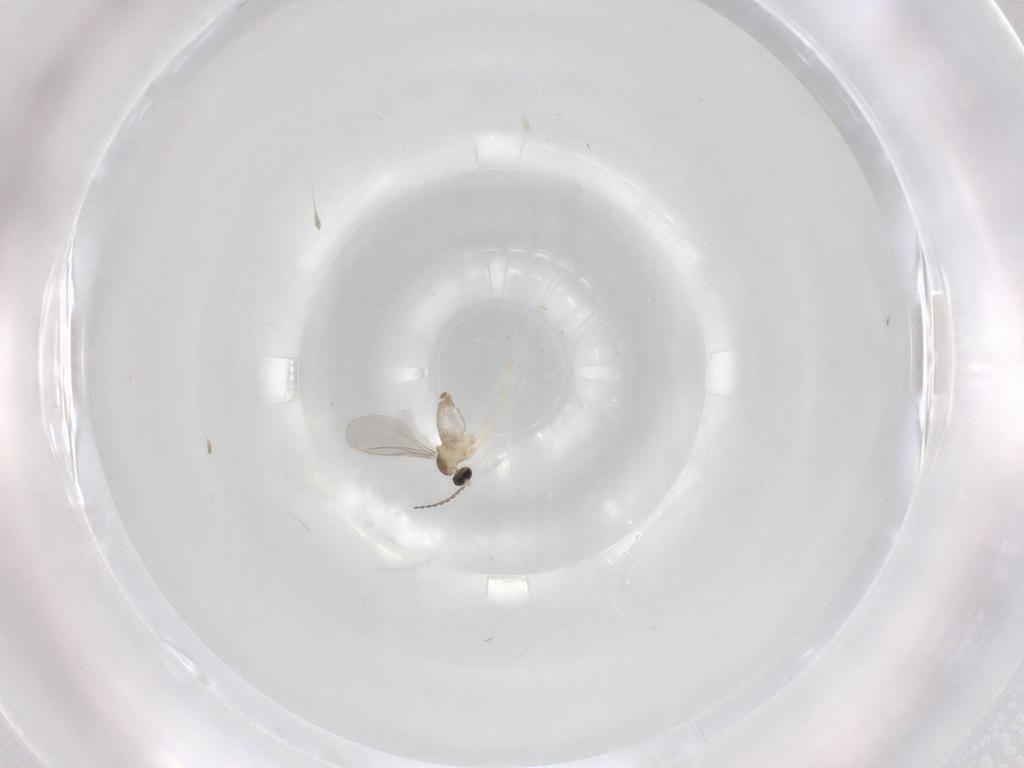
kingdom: Animalia
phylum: Arthropoda
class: Insecta
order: Diptera
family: Cecidomyiidae
